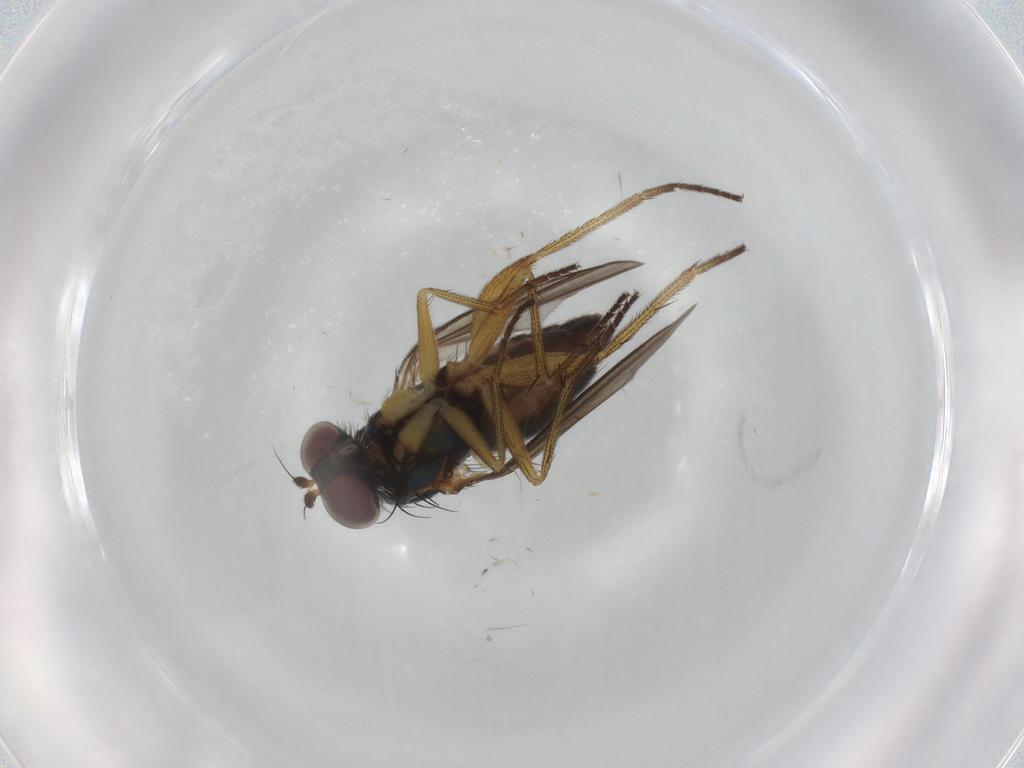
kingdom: Animalia
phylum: Arthropoda
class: Insecta
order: Diptera
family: Dolichopodidae
